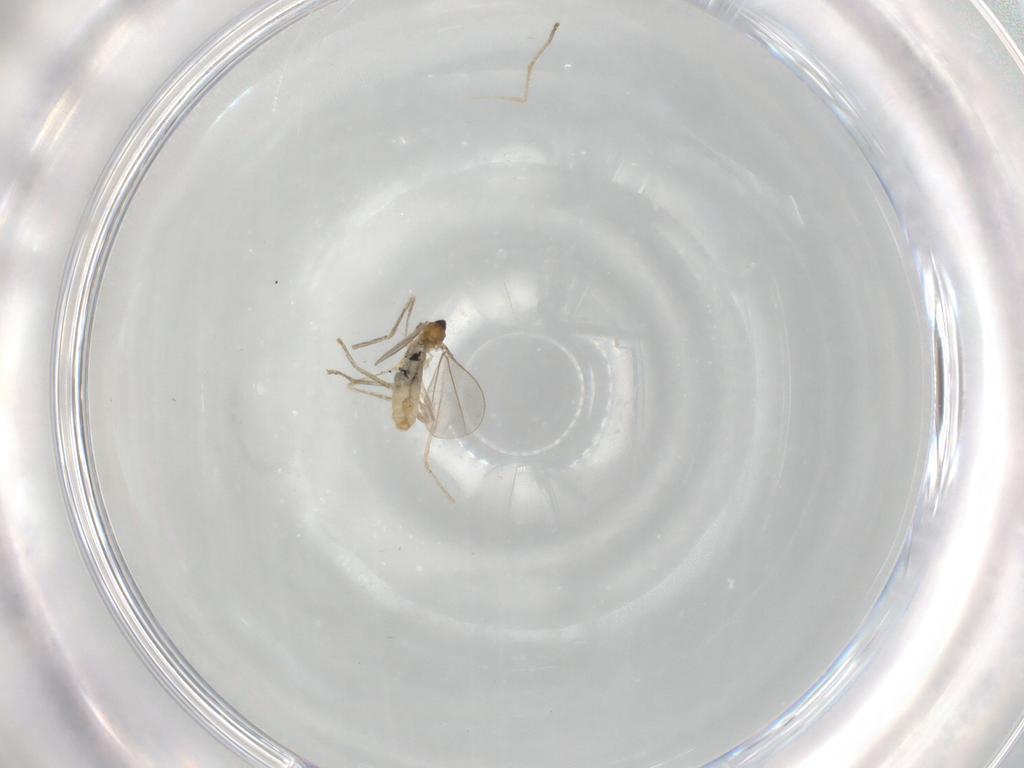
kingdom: Animalia
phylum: Arthropoda
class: Insecta
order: Diptera
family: Cecidomyiidae
